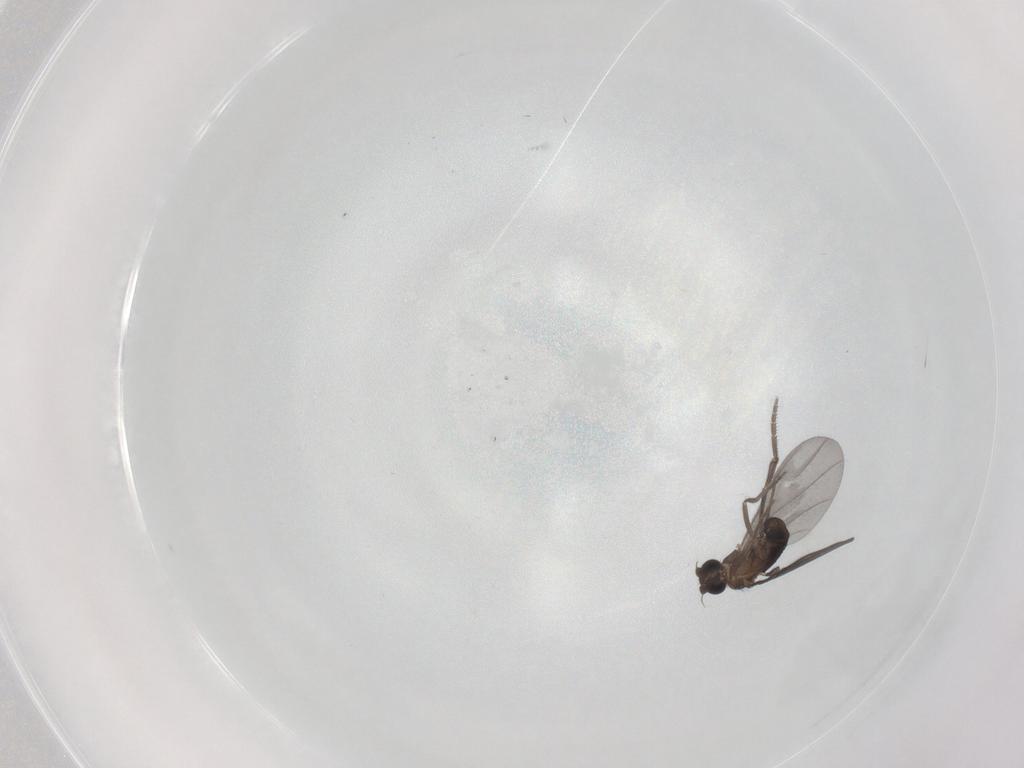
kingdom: Animalia
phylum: Arthropoda
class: Insecta
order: Diptera
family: Phoridae
